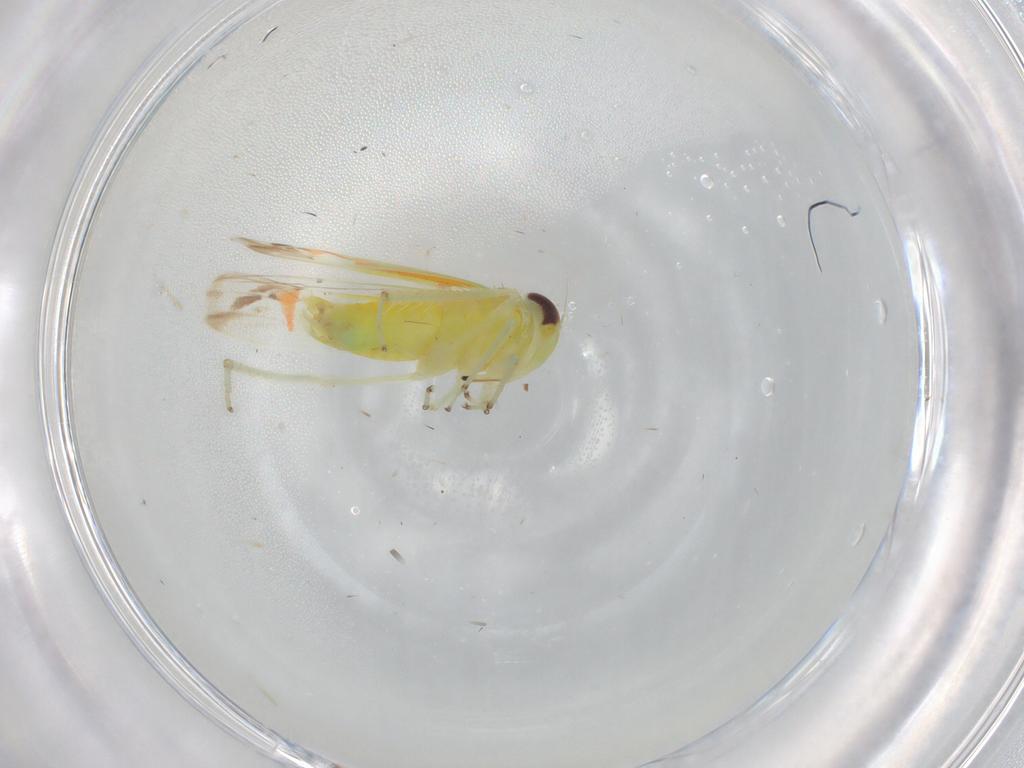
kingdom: Animalia
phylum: Arthropoda
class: Insecta
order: Hemiptera
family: Cicadellidae
